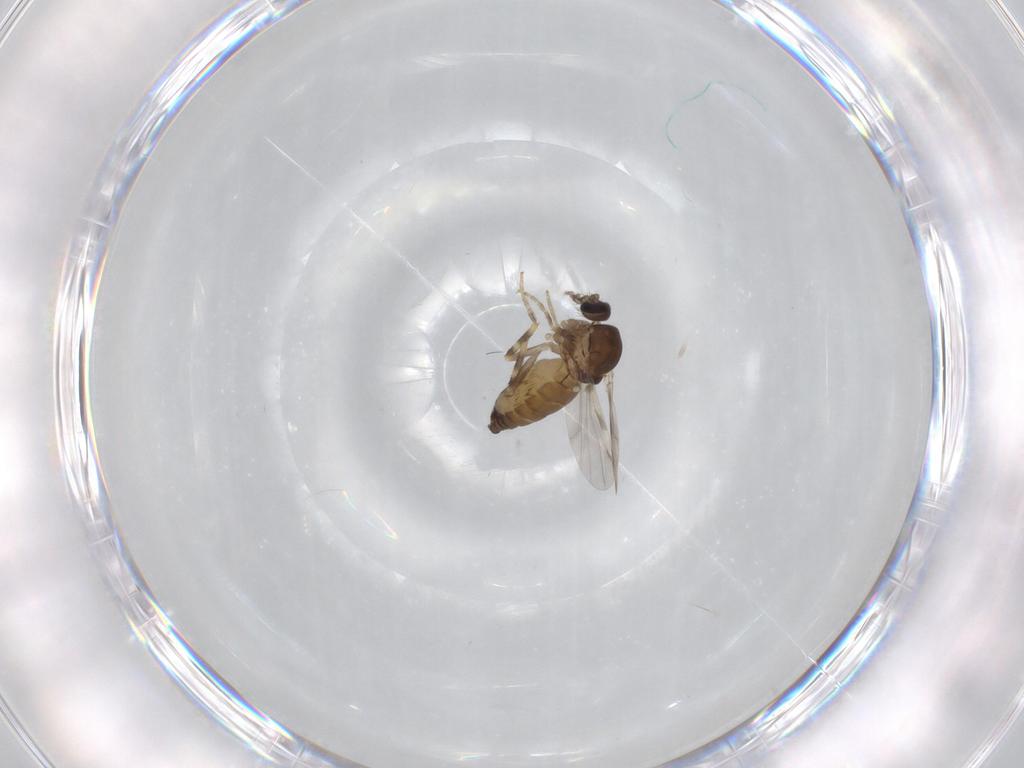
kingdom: Animalia
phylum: Arthropoda
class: Insecta
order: Diptera
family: Ceratopogonidae
